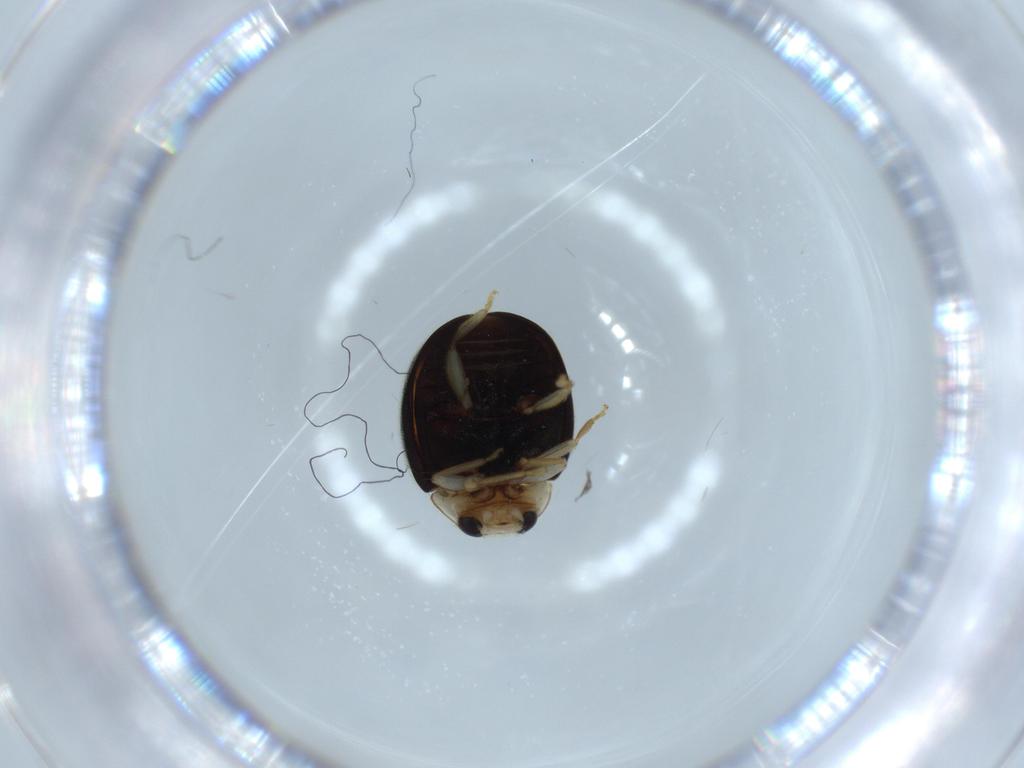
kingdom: Animalia
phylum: Arthropoda
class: Insecta
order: Coleoptera
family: Coccinellidae
